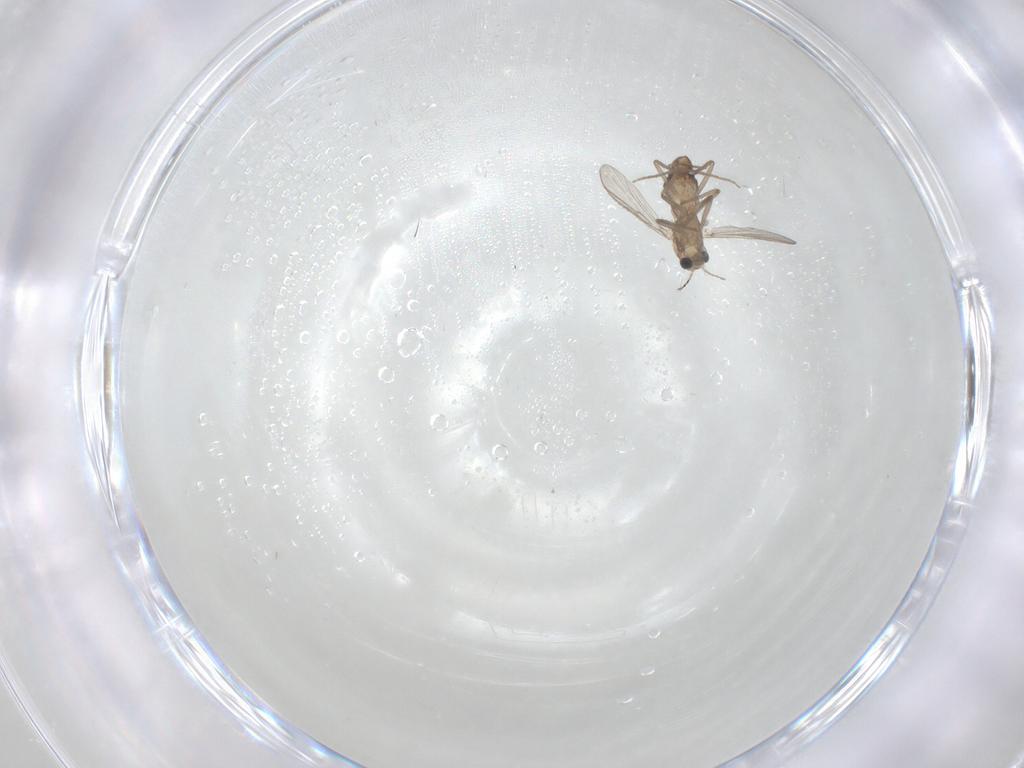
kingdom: Animalia
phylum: Arthropoda
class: Insecta
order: Diptera
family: Chironomidae
